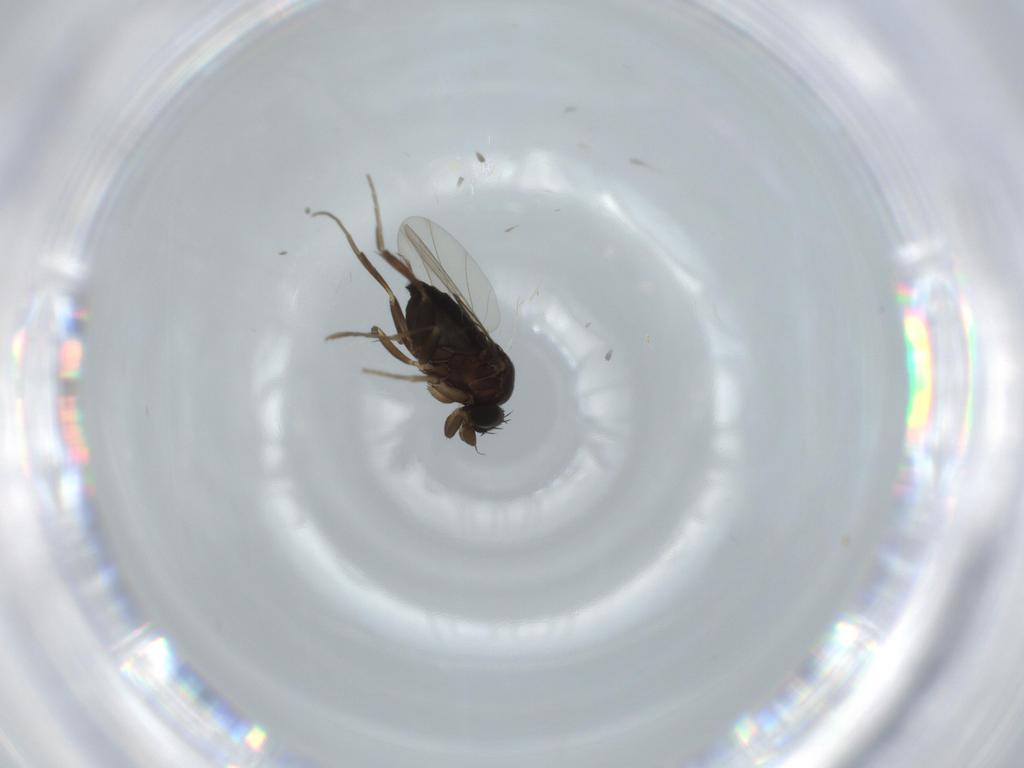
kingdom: Animalia
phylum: Arthropoda
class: Insecta
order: Diptera
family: Phoridae
